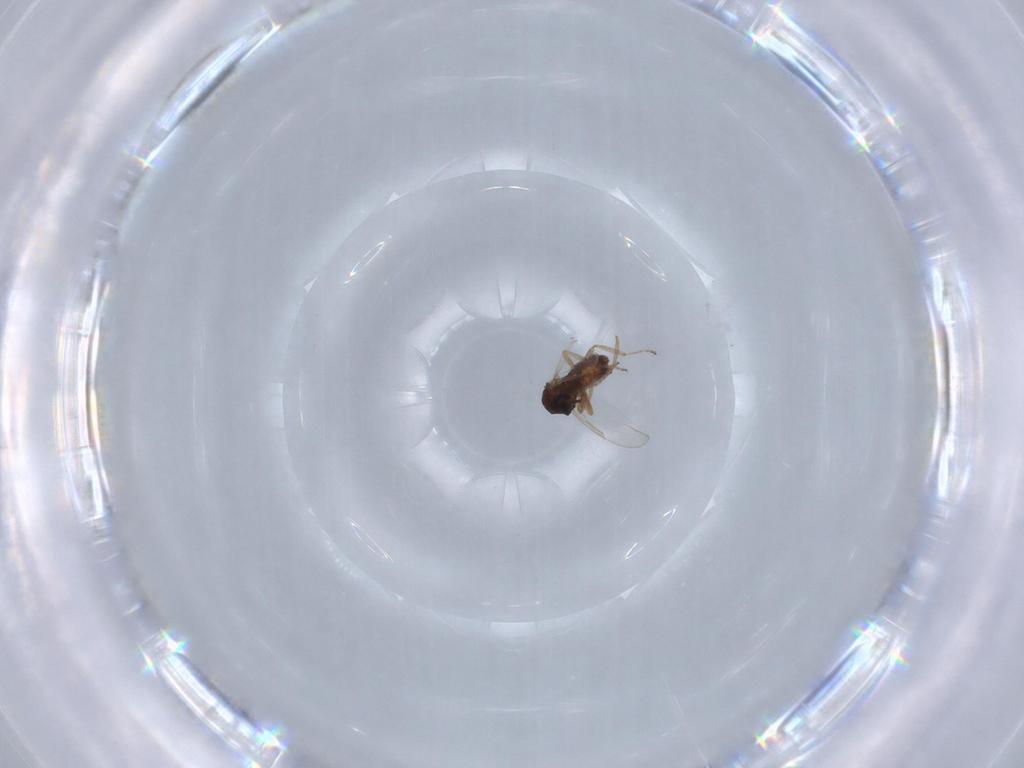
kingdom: Animalia
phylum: Arthropoda
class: Insecta
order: Diptera
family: Ceratopogonidae
